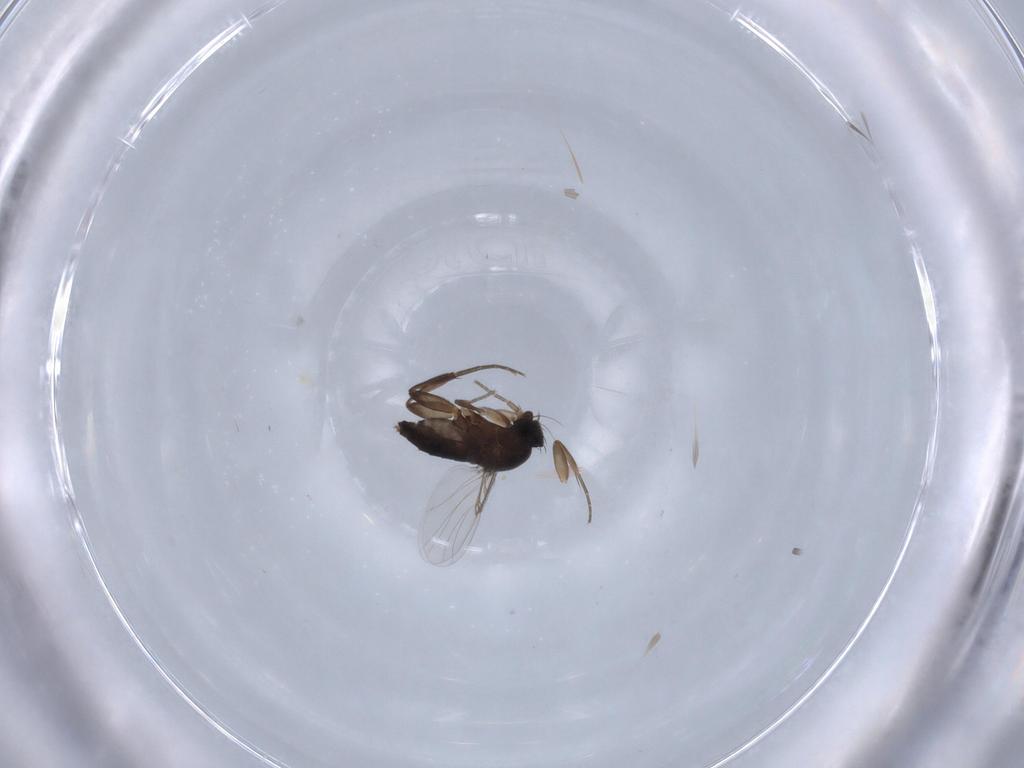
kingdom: Animalia
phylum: Arthropoda
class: Insecta
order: Diptera
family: Phoridae
